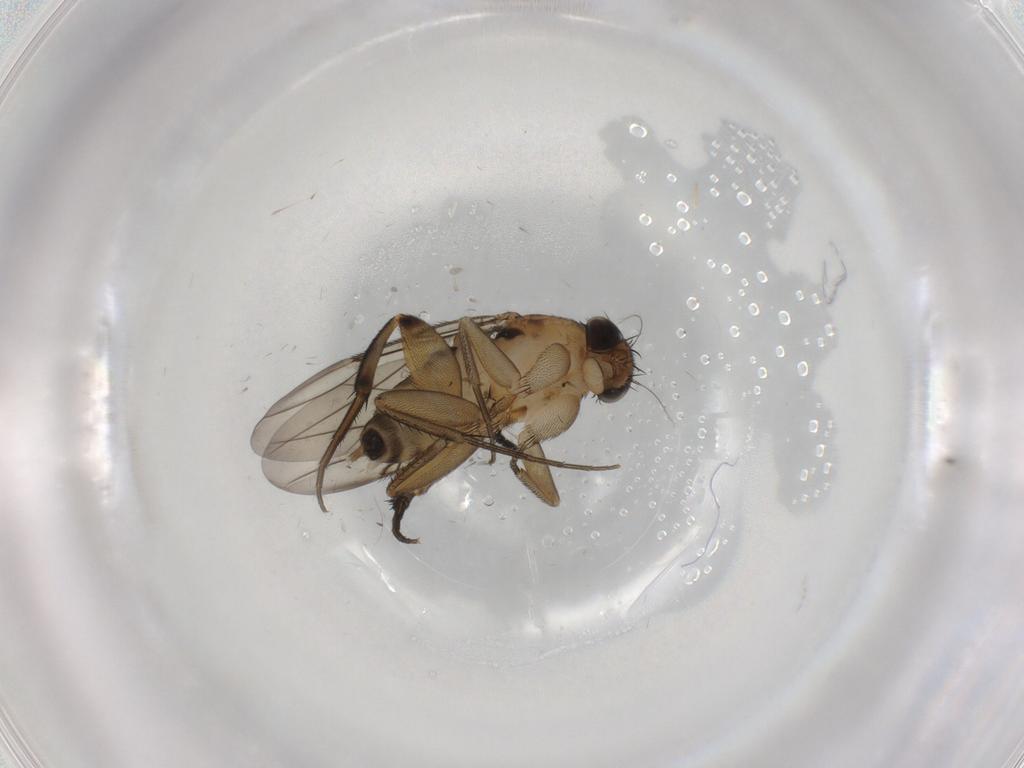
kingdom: Animalia
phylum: Arthropoda
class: Insecta
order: Diptera
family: Phoridae
